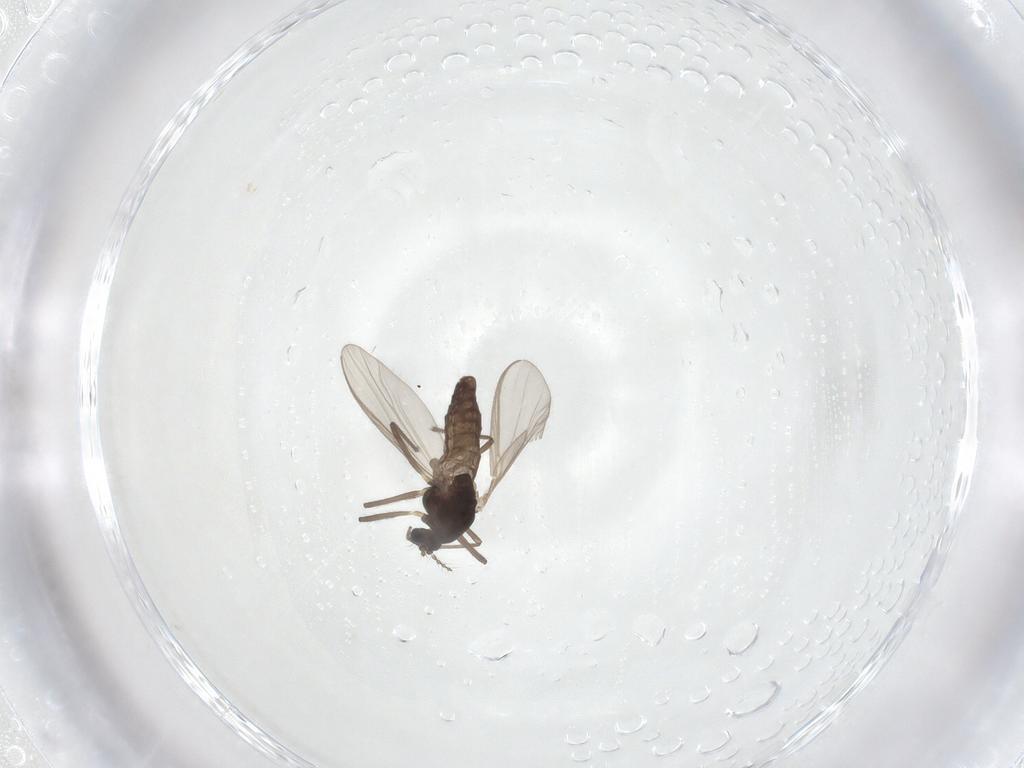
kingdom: Animalia
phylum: Arthropoda
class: Insecta
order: Diptera
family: Chironomidae
